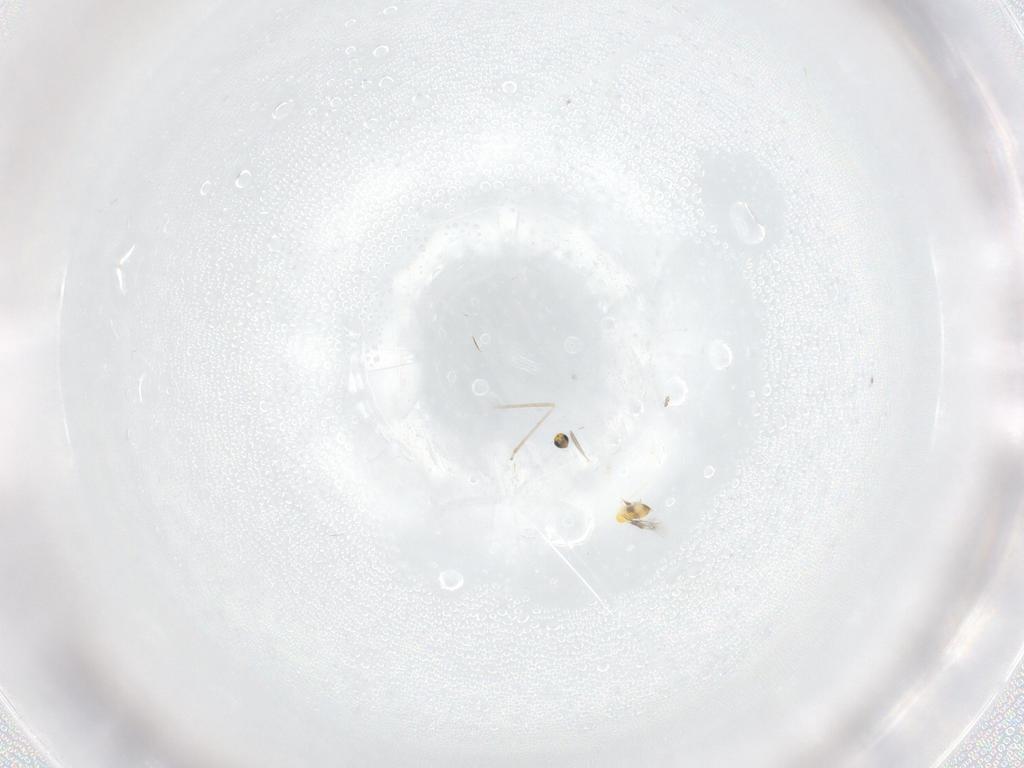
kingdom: Animalia
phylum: Arthropoda
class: Insecta
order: Hymenoptera
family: Trichogrammatidae
